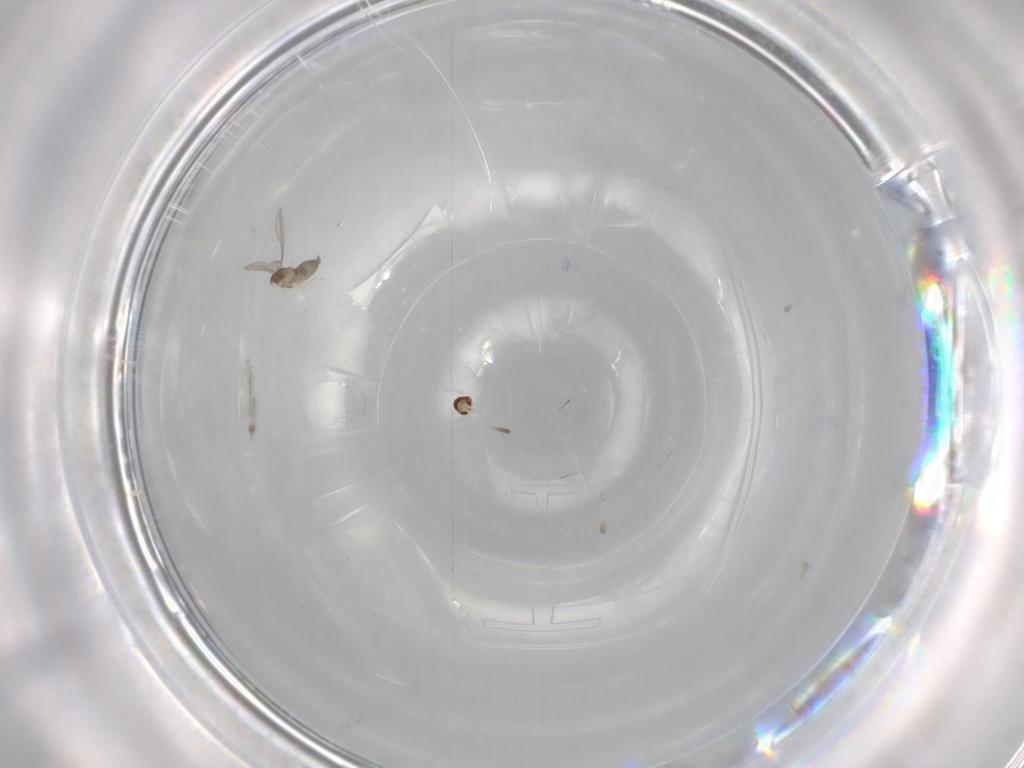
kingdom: Animalia
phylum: Arthropoda
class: Insecta
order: Diptera
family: Cecidomyiidae
